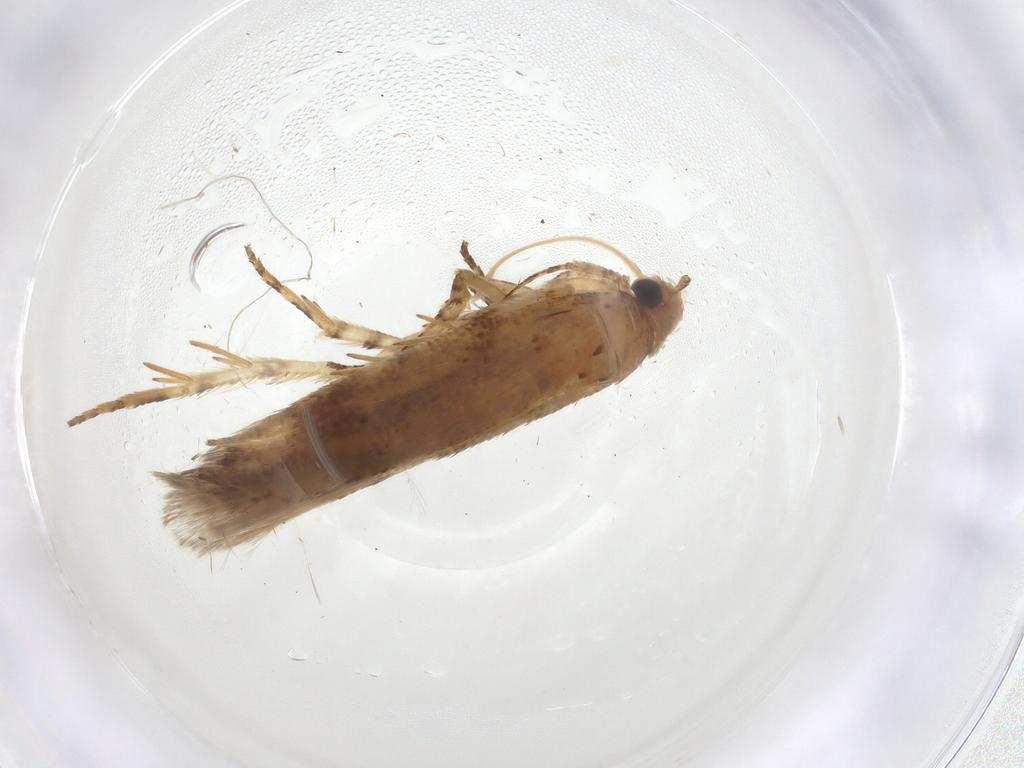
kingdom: Animalia
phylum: Arthropoda
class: Insecta
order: Lepidoptera
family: Gelechiidae
